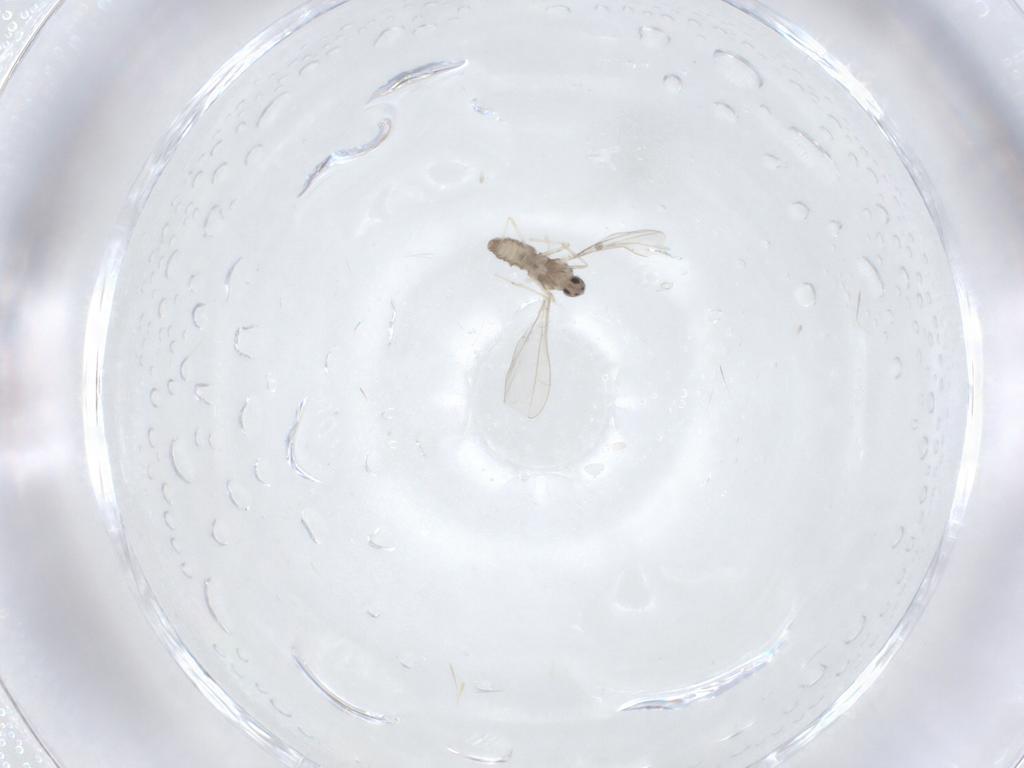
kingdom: Animalia
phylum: Arthropoda
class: Insecta
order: Diptera
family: Cecidomyiidae
